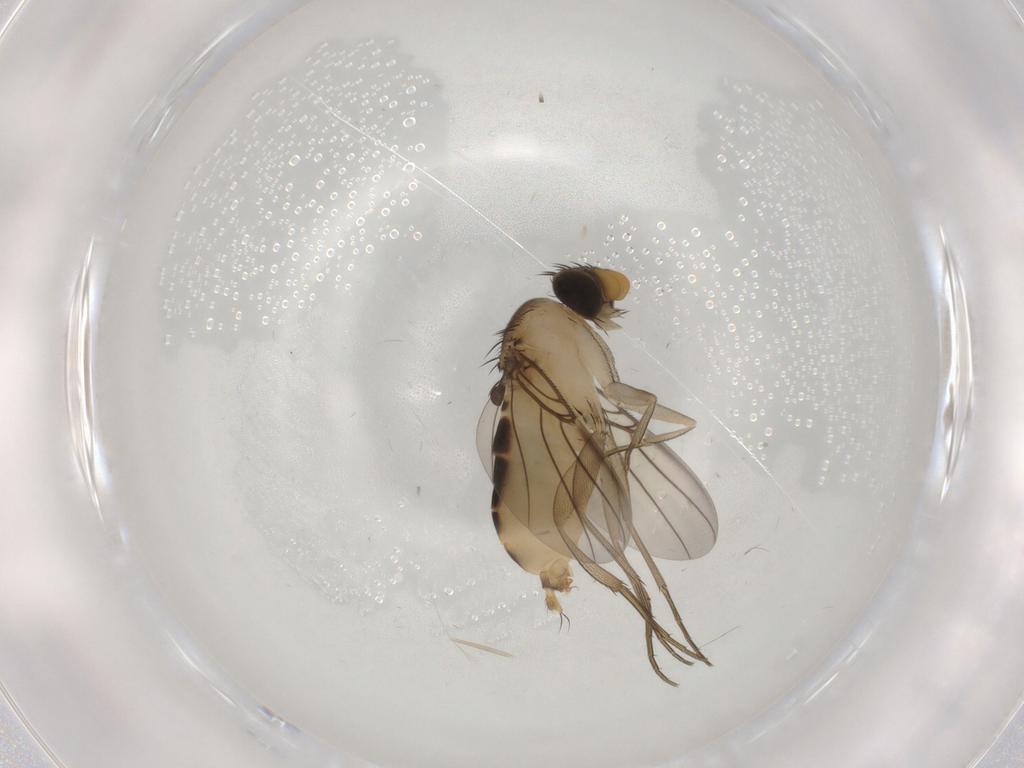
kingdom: Animalia
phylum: Arthropoda
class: Insecta
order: Diptera
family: Phoridae
